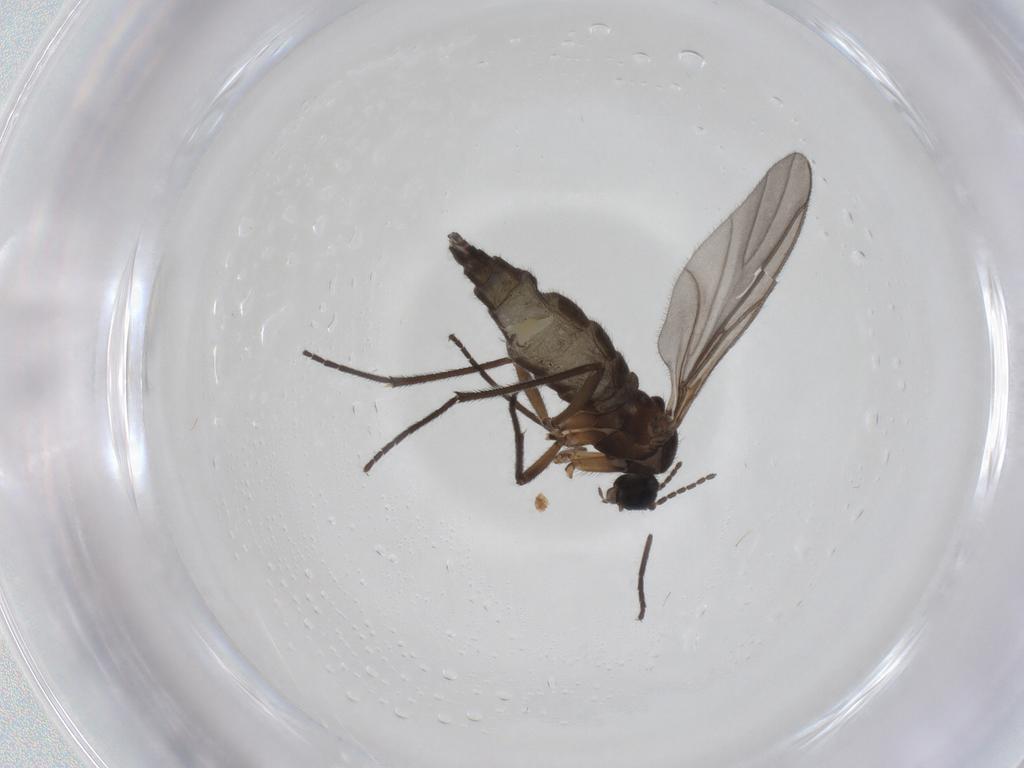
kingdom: Animalia
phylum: Arthropoda
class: Insecta
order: Diptera
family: Sciaridae
